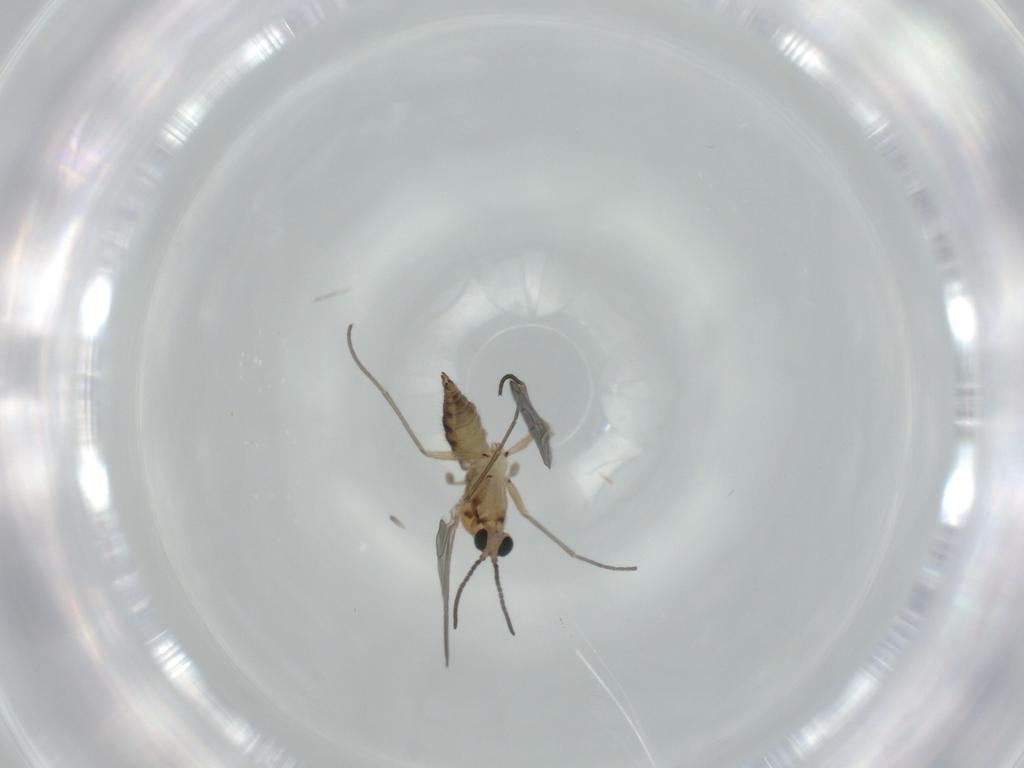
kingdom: Animalia
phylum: Arthropoda
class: Insecta
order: Diptera
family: Sciaridae
